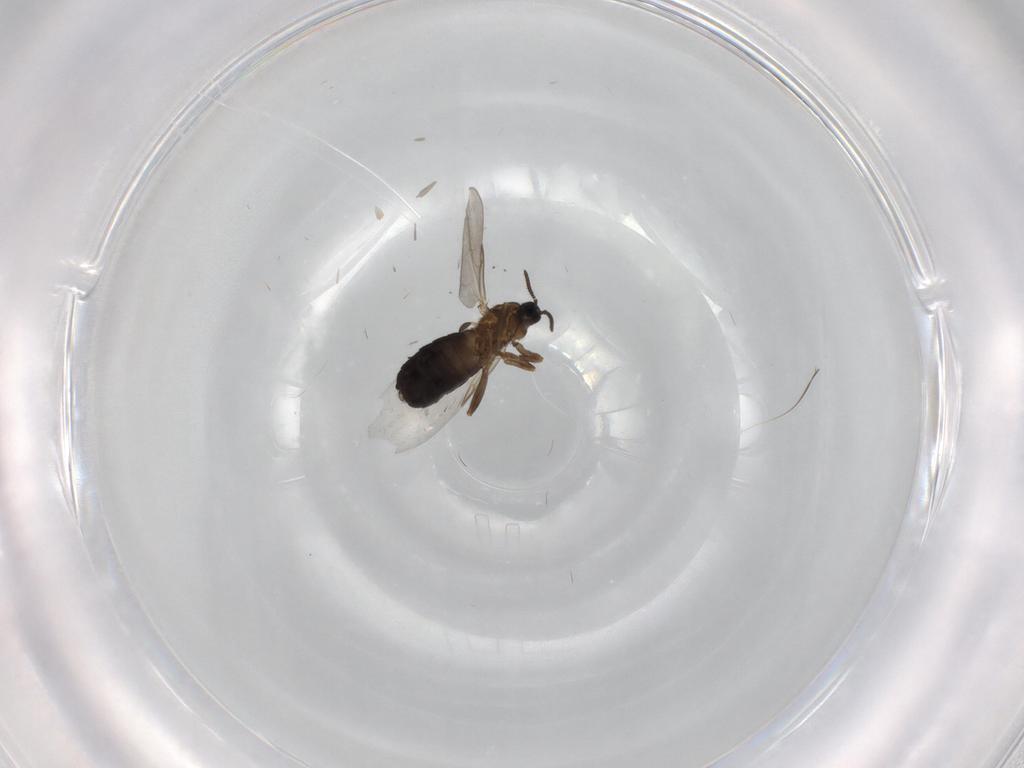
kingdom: Animalia
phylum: Arthropoda
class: Insecta
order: Diptera
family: Scatopsidae
